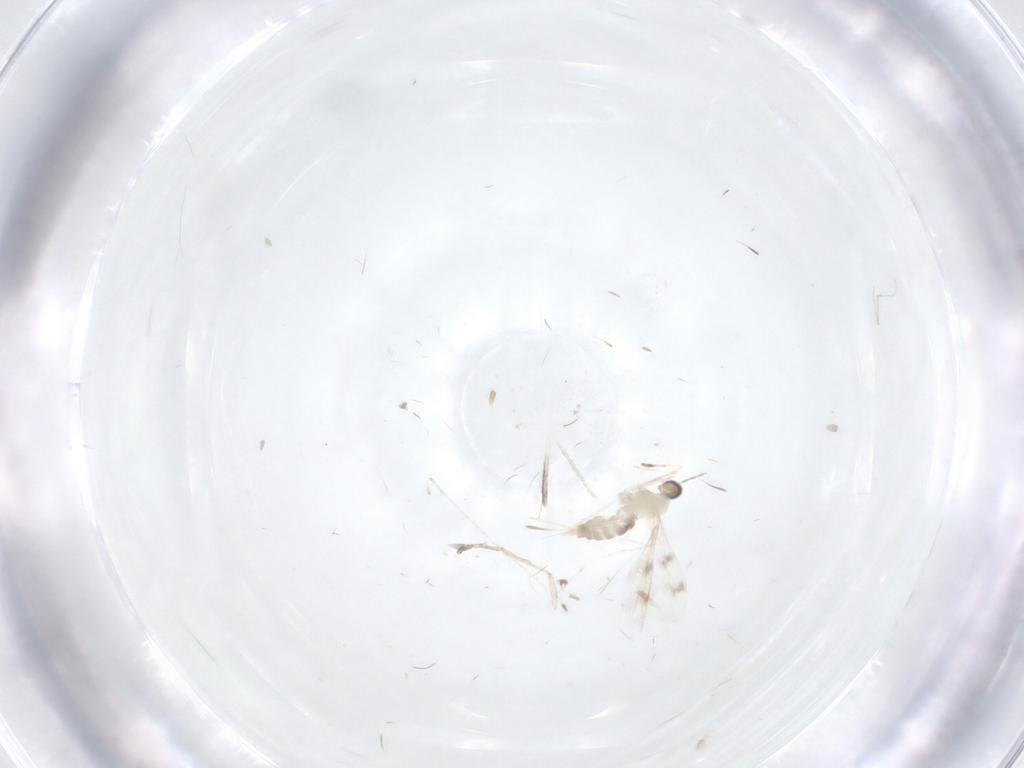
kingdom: Animalia
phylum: Arthropoda
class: Insecta
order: Diptera
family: Cecidomyiidae
